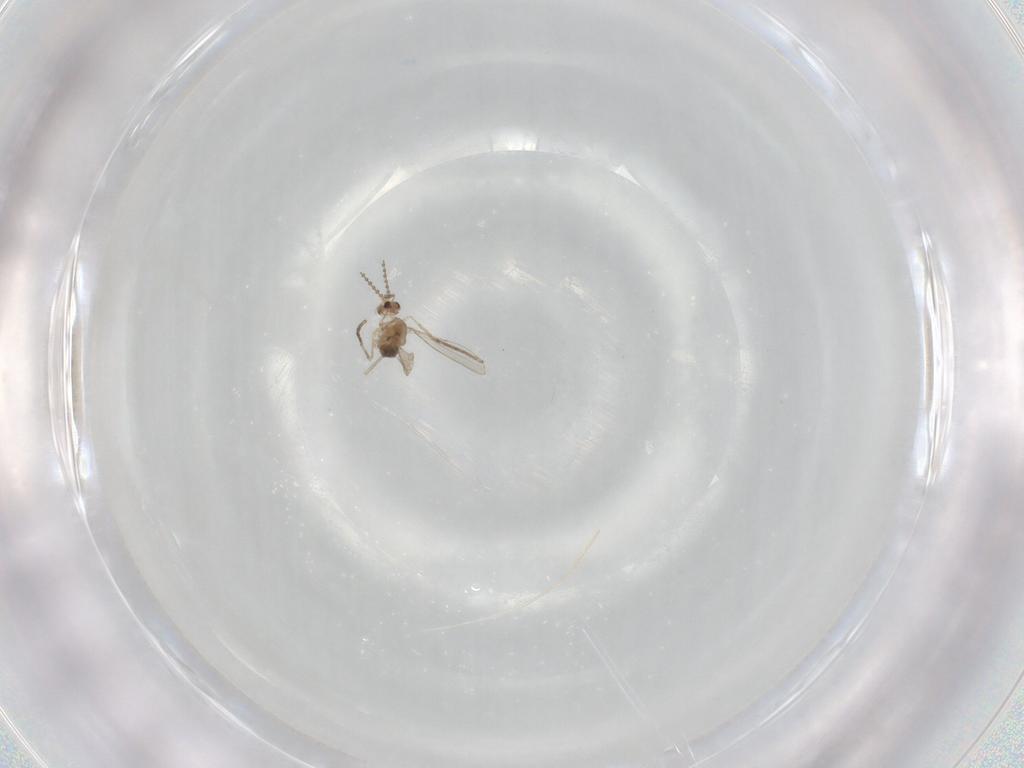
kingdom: Animalia
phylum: Arthropoda
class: Insecta
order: Diptera
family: Cecidomyiidae
